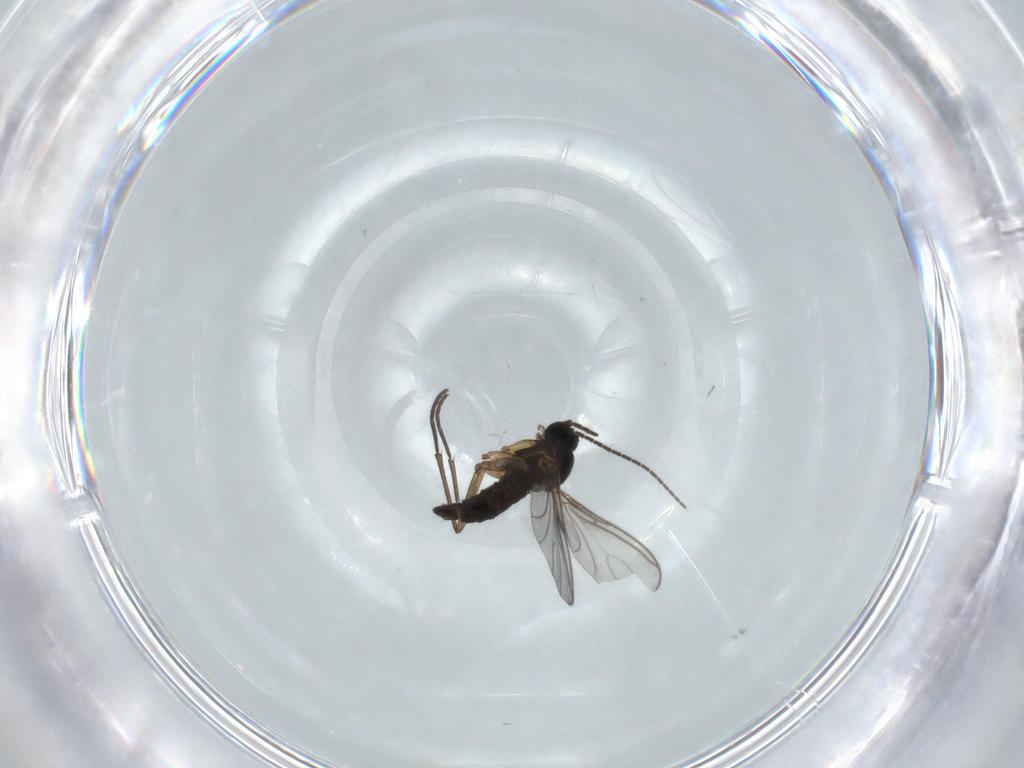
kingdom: Animalia
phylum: Arthropoda
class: Insecta
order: Diptera
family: Sciaridae
